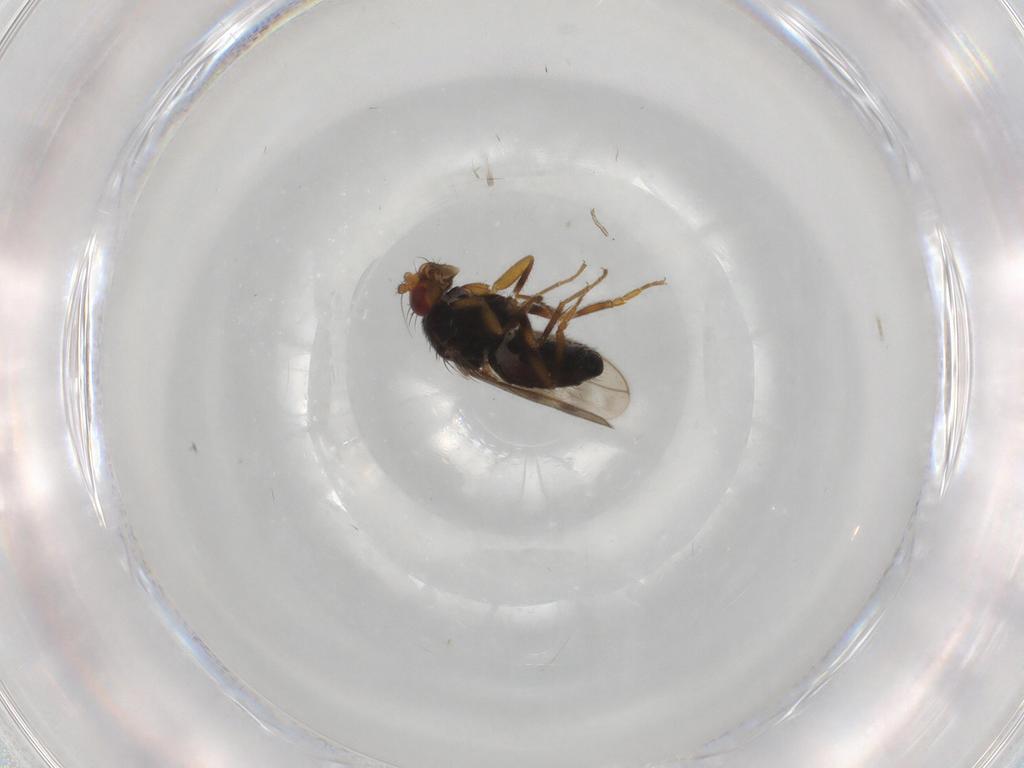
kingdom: Animalia
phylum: Arthropoda
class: Insecta
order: Diptera
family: Sphaeroceridae
